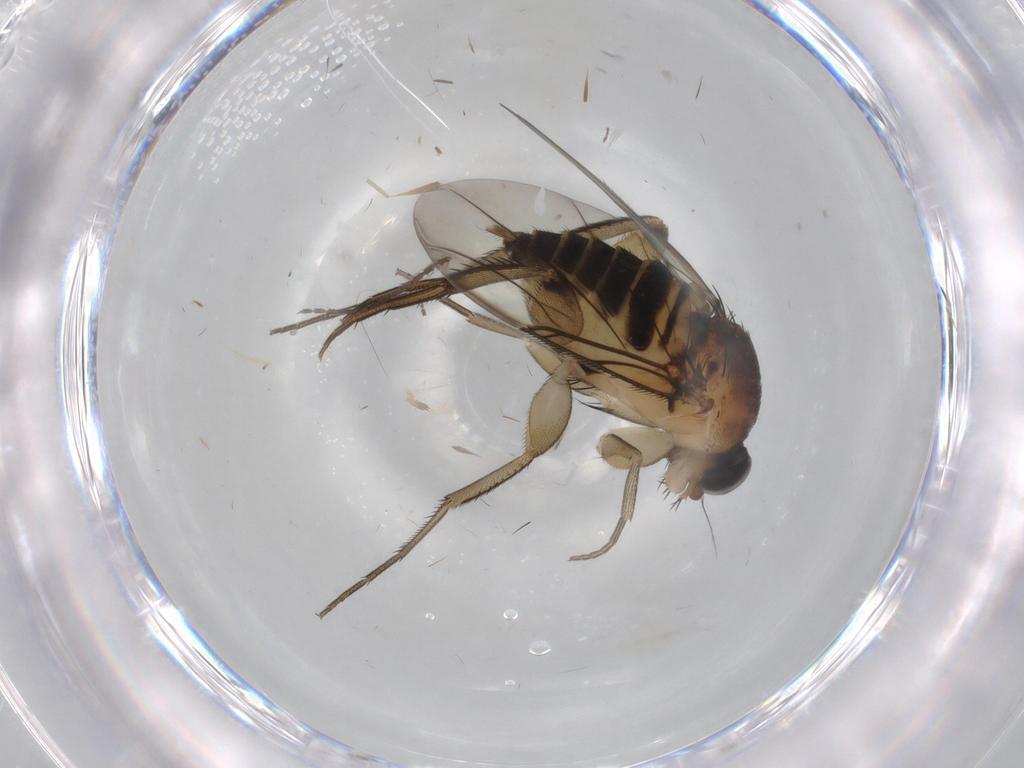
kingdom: Animalia
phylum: Arthropoda
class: Insecta
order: Diptera
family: Phoridae
